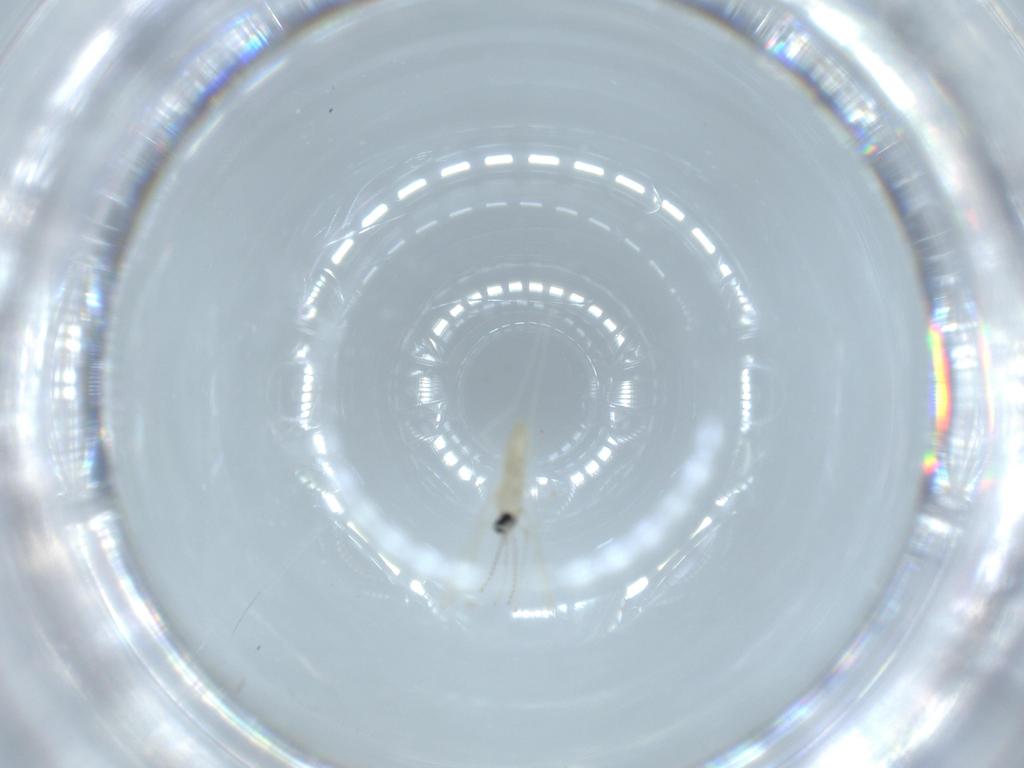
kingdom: Animalia
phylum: Arthropoda
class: Insecta
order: Diptera
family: Cecidomyiidae
